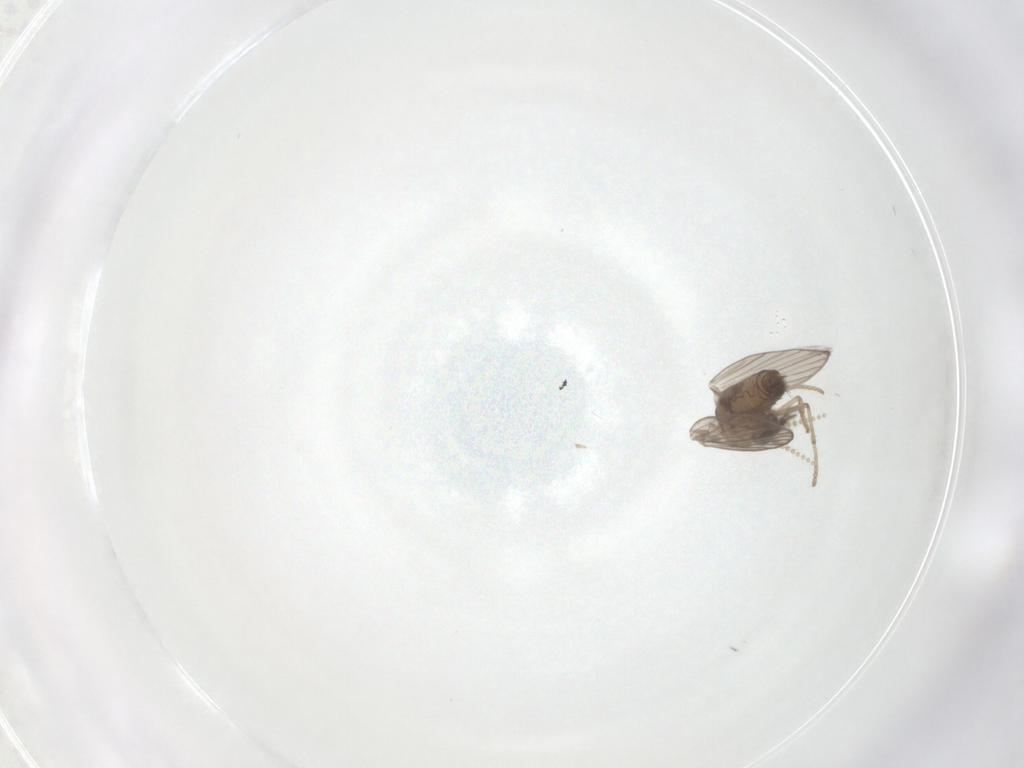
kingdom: Animalia
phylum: Arthropoda
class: Insecta
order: Diptera
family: Psychodidae
